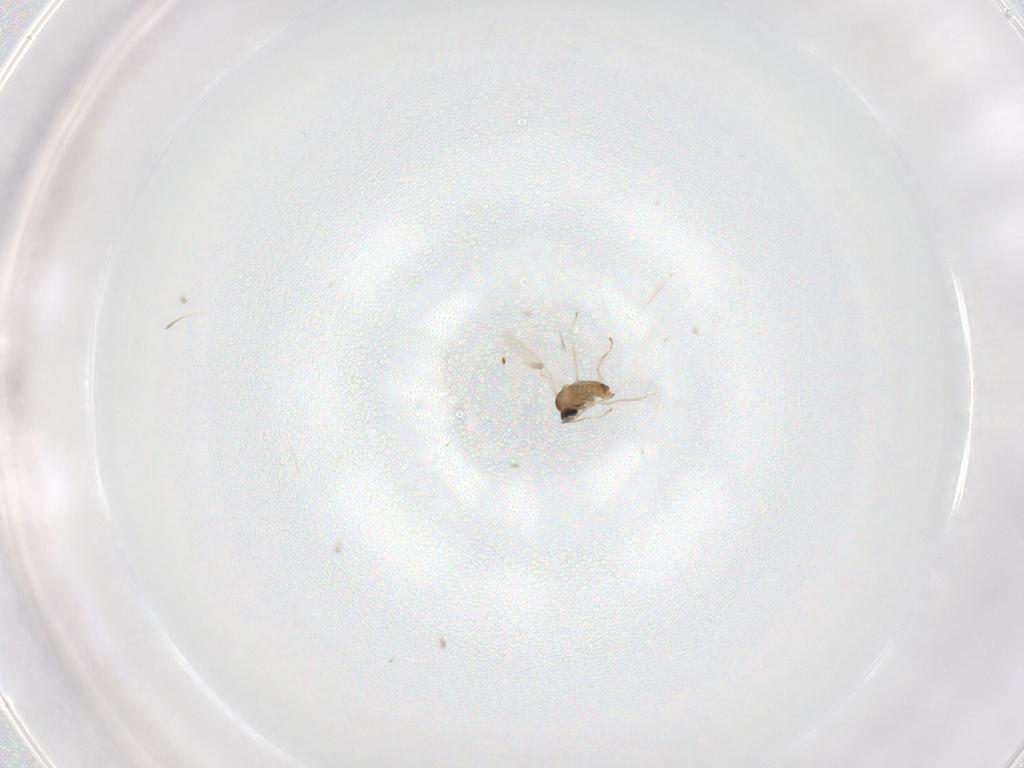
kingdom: Animalia
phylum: Arthropoda
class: Insecta
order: Diptera
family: Cecidomyiidae
